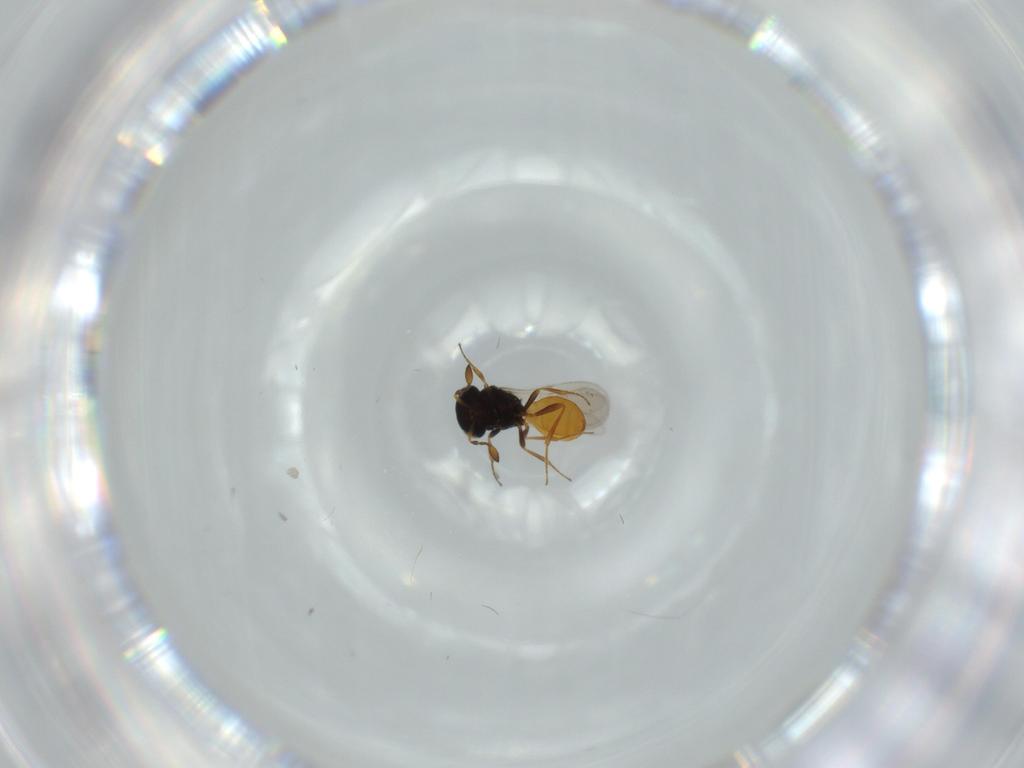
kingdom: Animalia
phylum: Arthropoda
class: Insecta
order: Hymenoptera
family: Scelionidae
